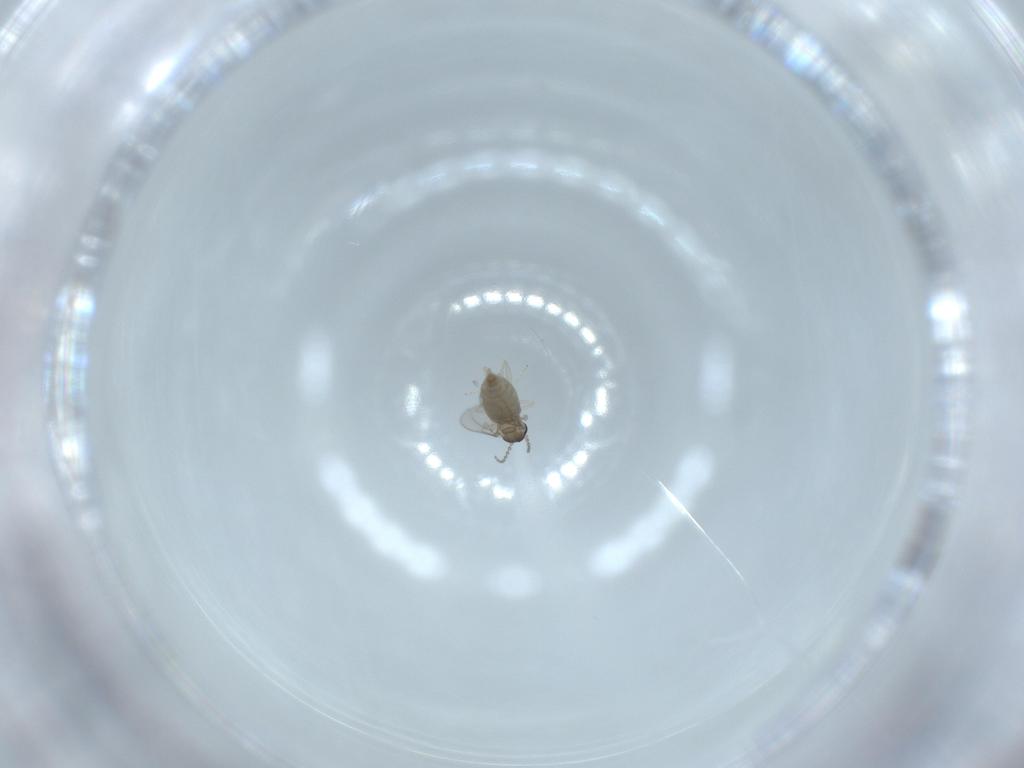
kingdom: Animalia
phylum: Arthropoda
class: Insecta
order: Diptera
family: Cecidomyiidae
